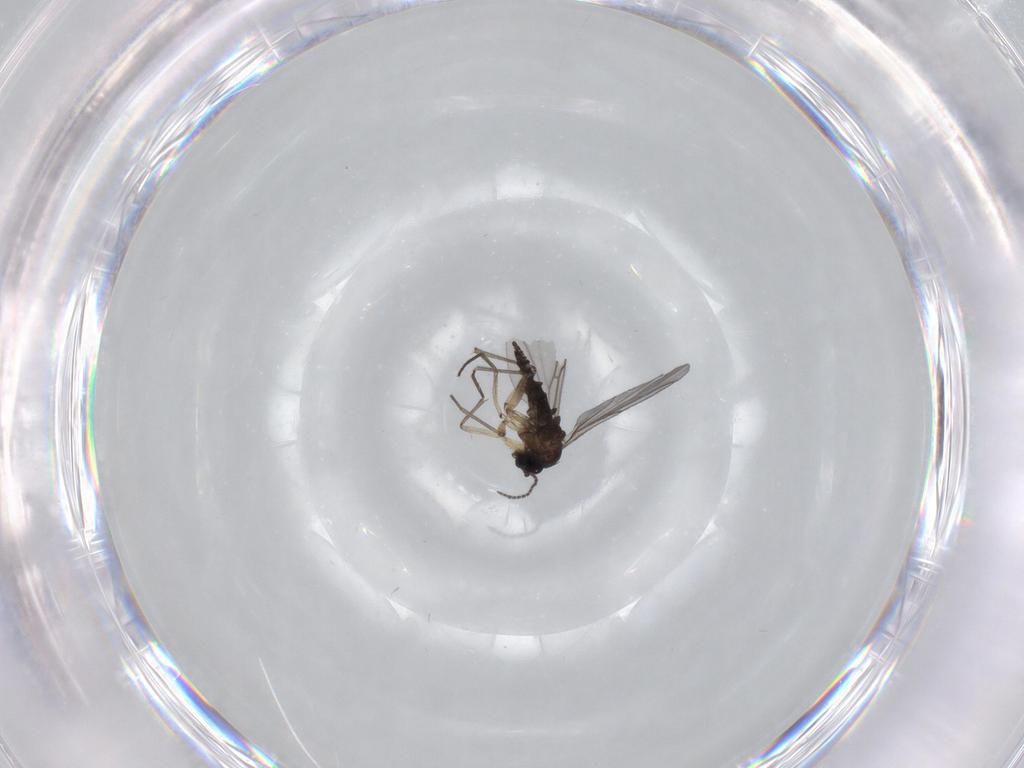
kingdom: Animalia
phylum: Arthropoda
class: Insecta
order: Diptera
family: Sciaridae
